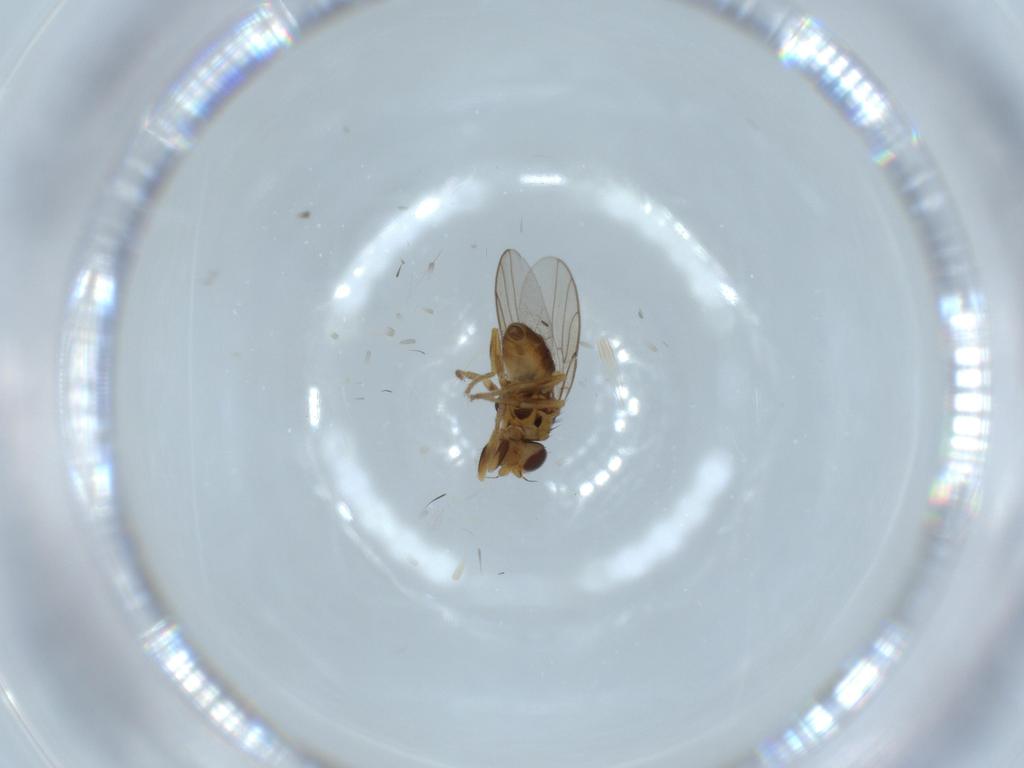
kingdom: Animalia
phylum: Arthropoda
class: Insecta
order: Diptera
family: Chloropidae
